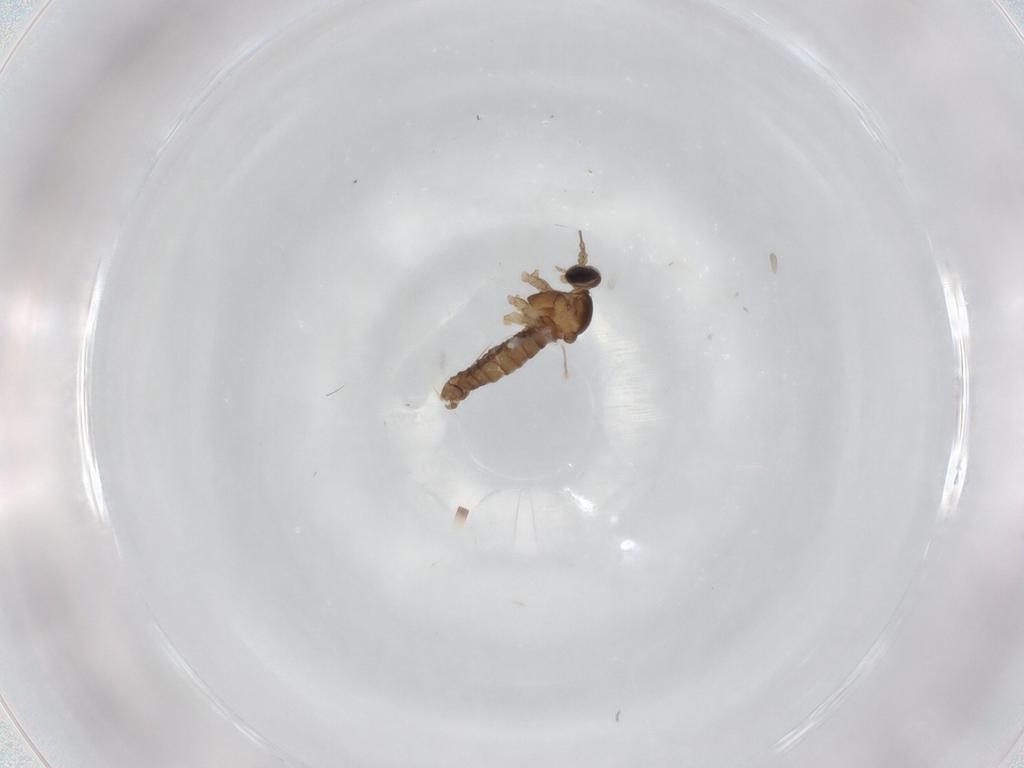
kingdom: Animalia
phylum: Arthropoda
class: Insecta
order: Diptera
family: Cecidomyiidae
